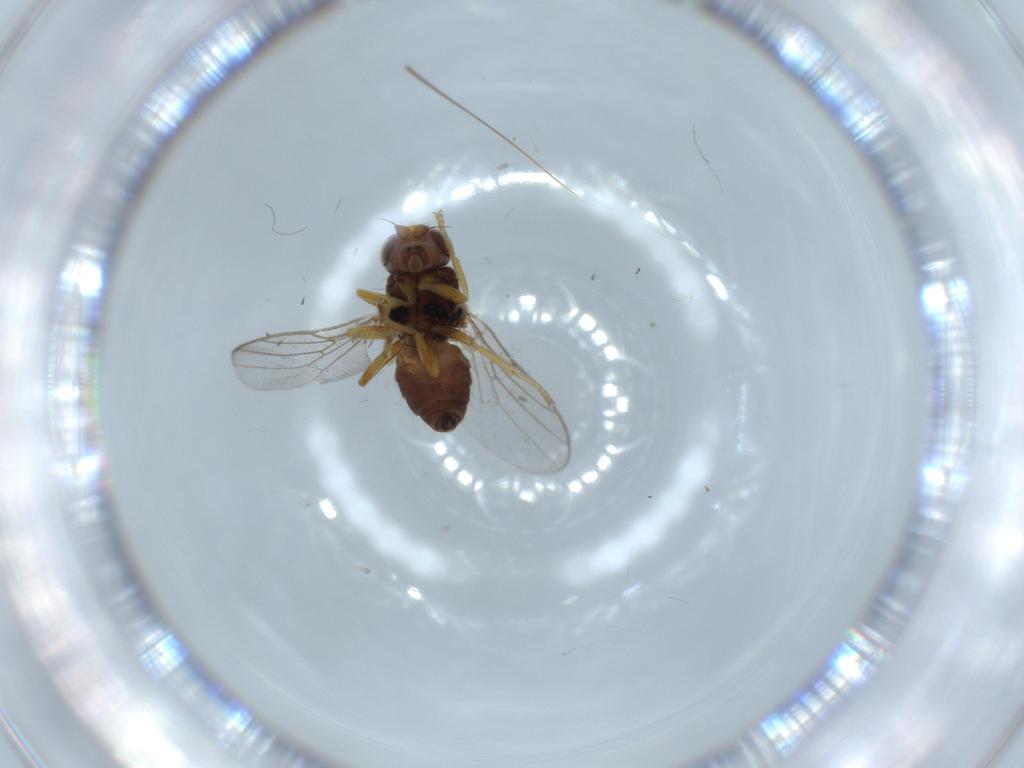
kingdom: Animalia
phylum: Arthropoda
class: Insecta
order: Diptera
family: Chloropidae
